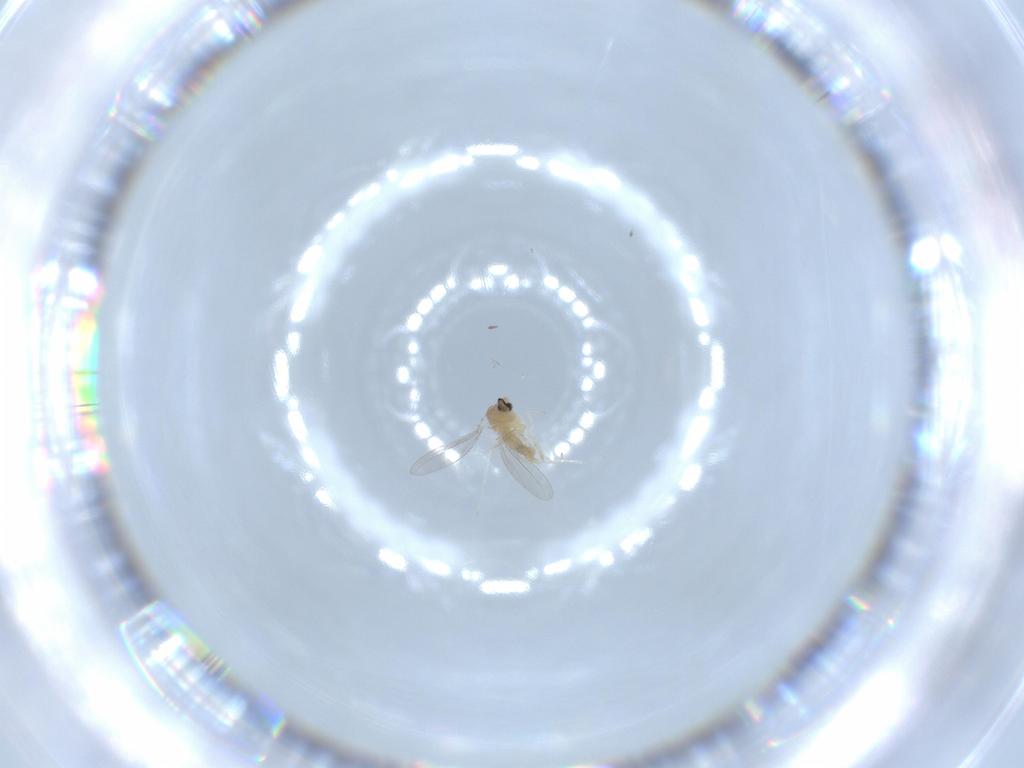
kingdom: Animalia
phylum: Arthropoda
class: Insecta
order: Diptera
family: Cecidomyiidae
